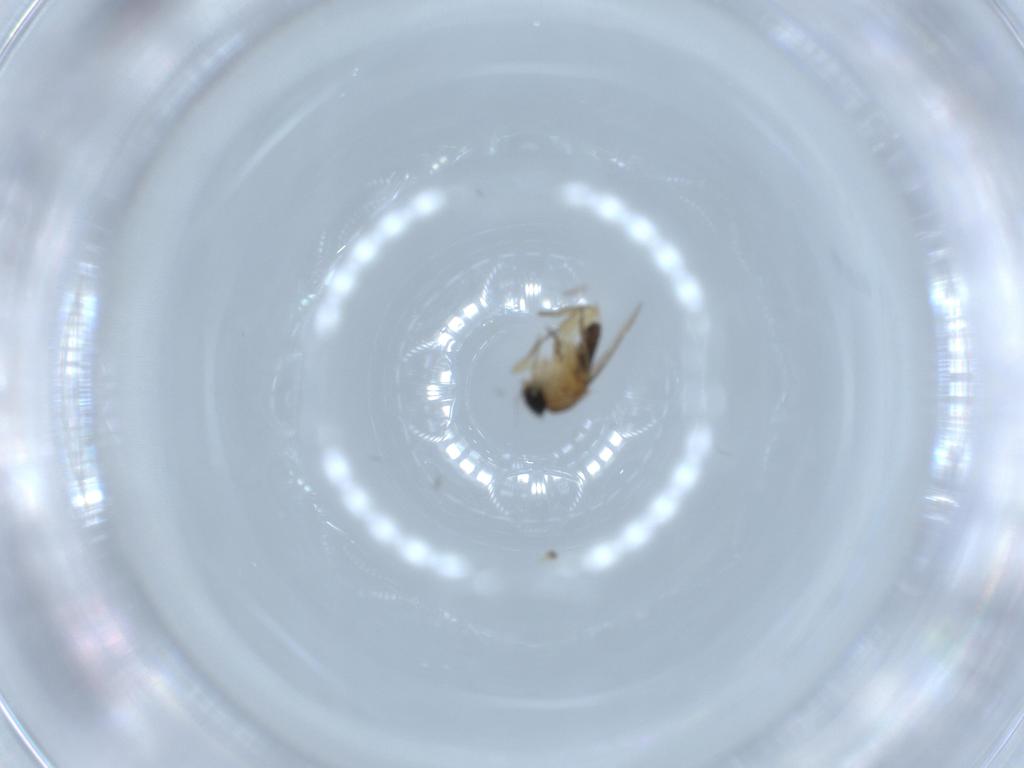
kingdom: Animalia
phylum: Arthropoda
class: Insecta
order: Diptera
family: Phoridae
